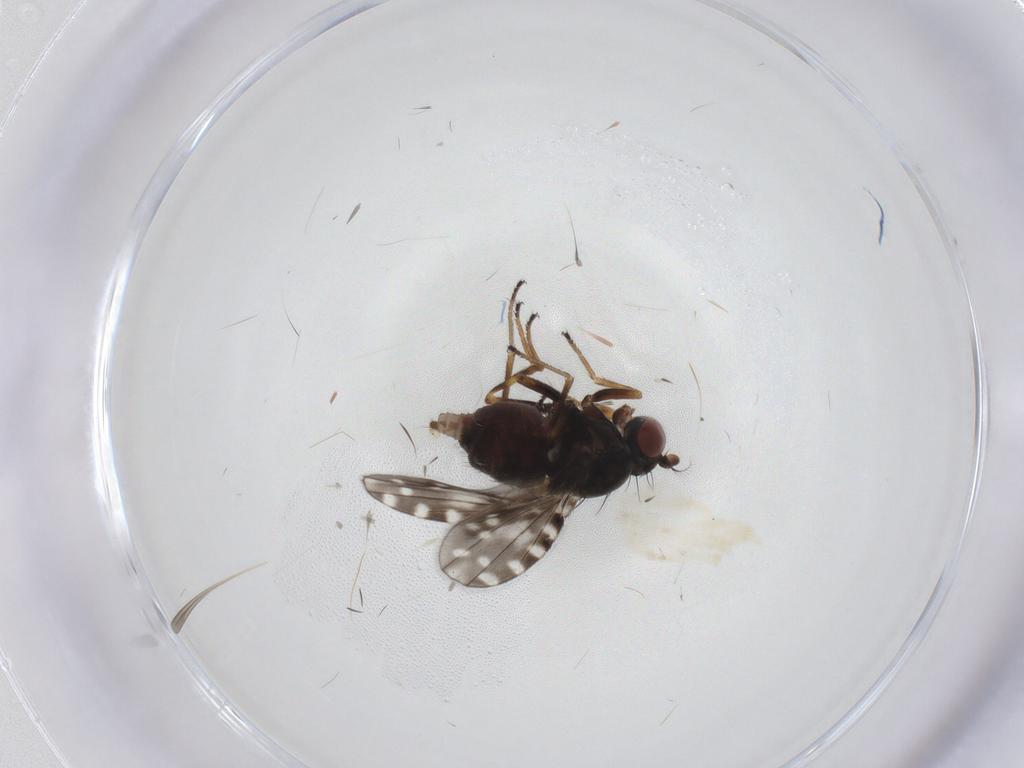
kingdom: Animalia
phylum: Arthropoda
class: Insecta
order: Diptera
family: Ephydridae
